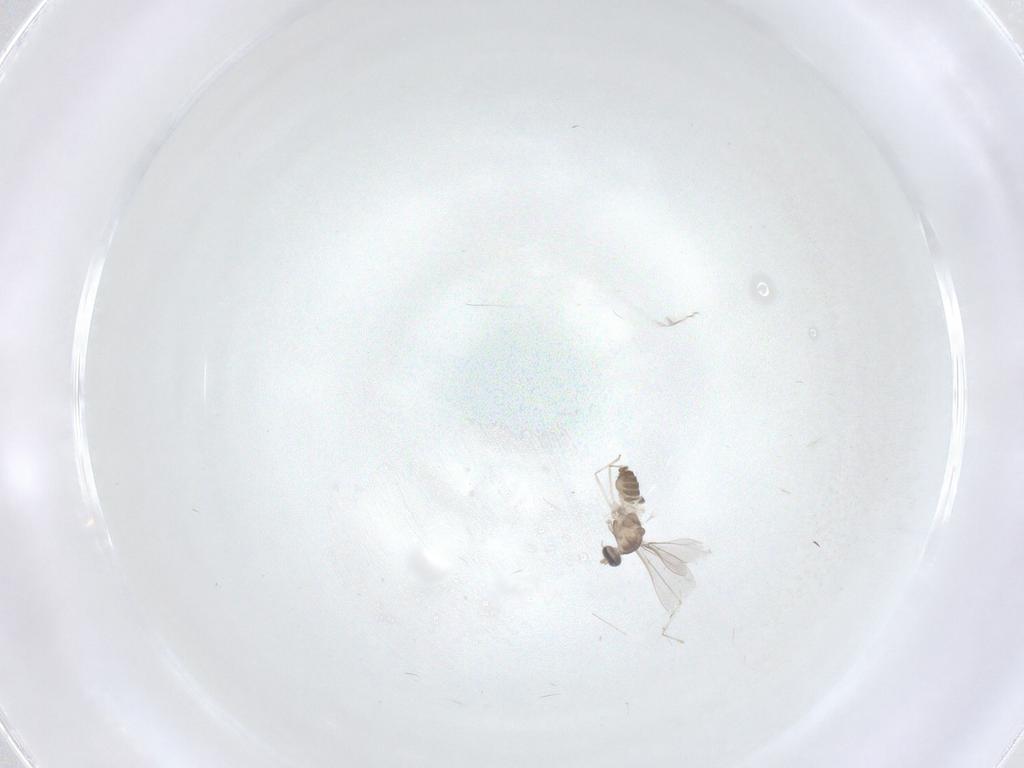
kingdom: Animalia
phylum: Arthropoda
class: Insecta
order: Diptera
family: Cecidomyiidae
